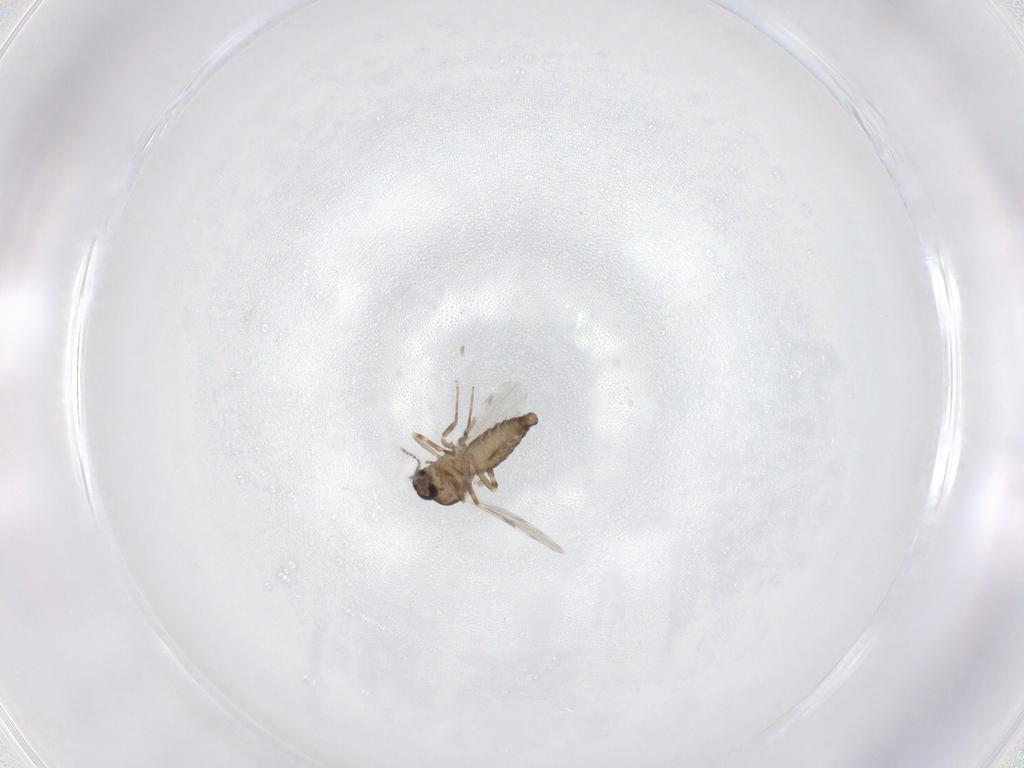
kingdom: Animalia
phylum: Arthropoda
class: Insecta
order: Diptera
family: Ceratopogonidae
